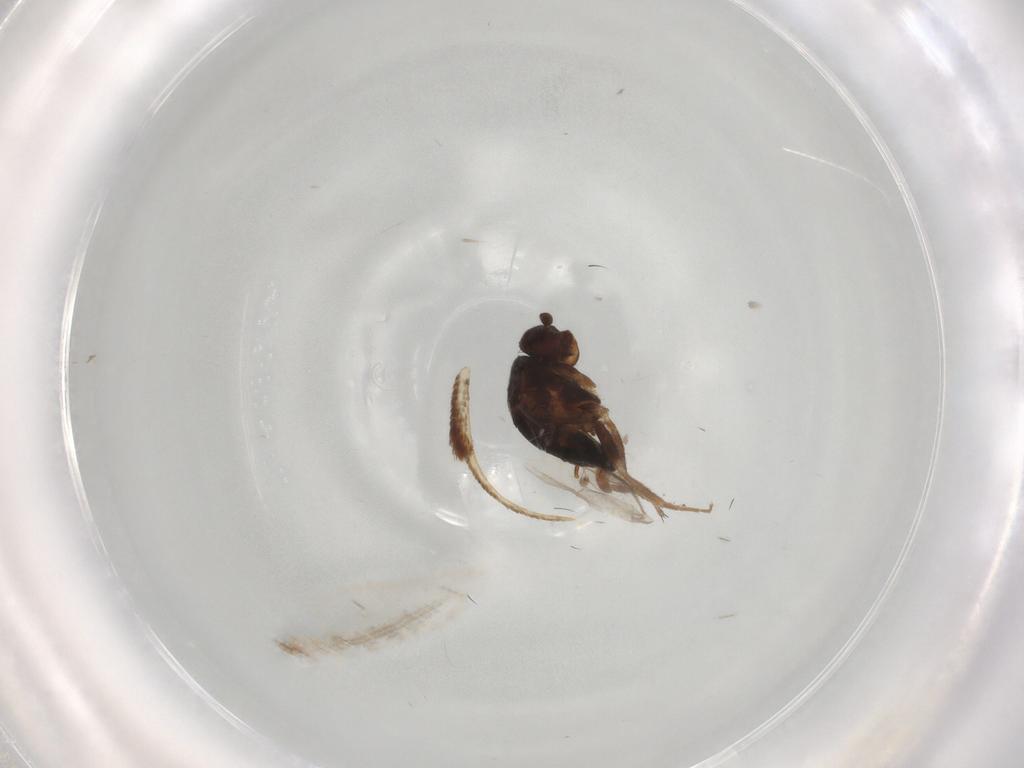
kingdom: Animalia
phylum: Arthropoda
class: Insecta
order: Diptera
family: Sphaeroceridae
